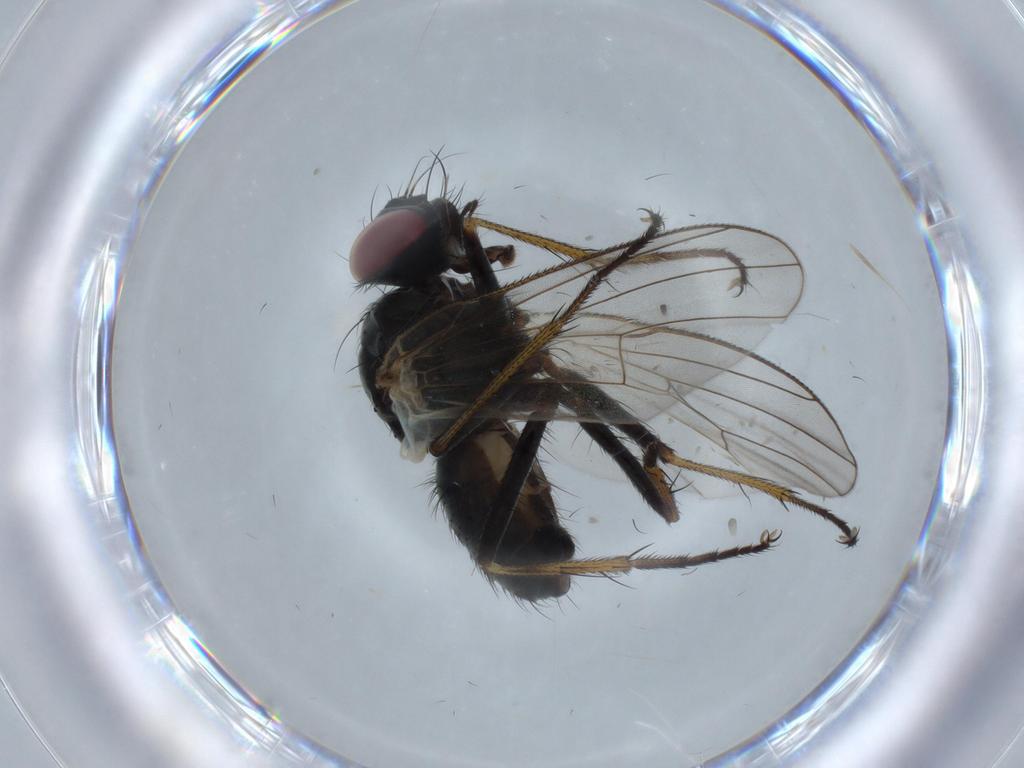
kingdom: Animalia
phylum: Arthropoda
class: Insecta
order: Diptera
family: Muscidae
